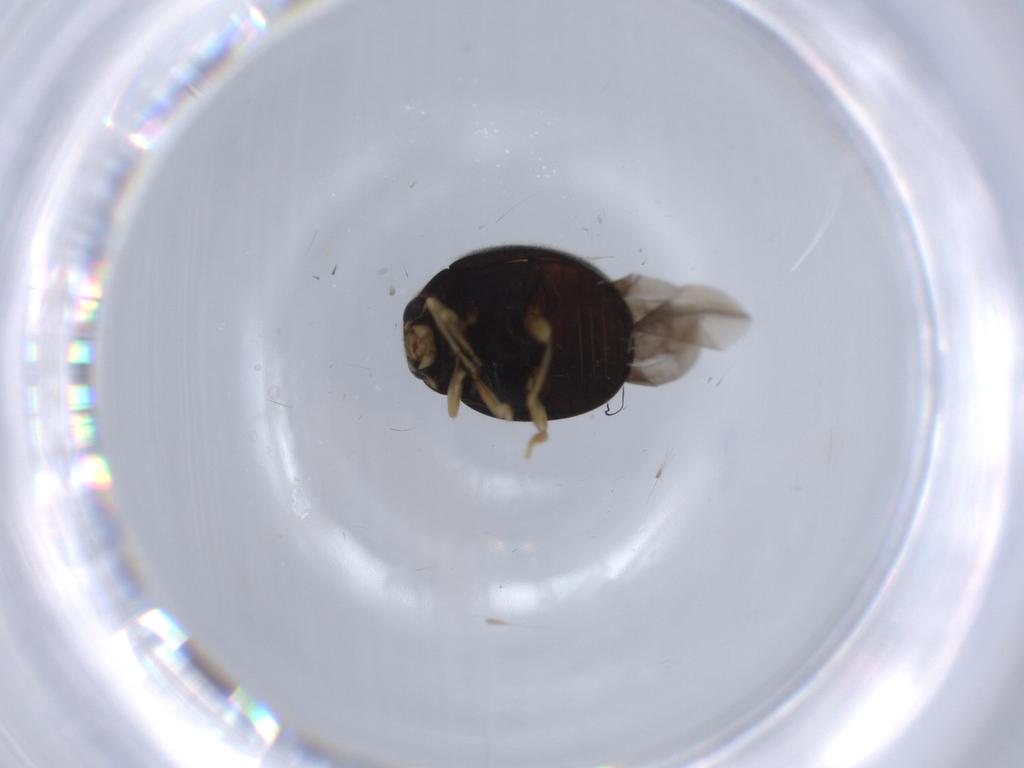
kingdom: Animalia
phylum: Arthropoda
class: Insecta
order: Coleoptera
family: Coccinellidae
